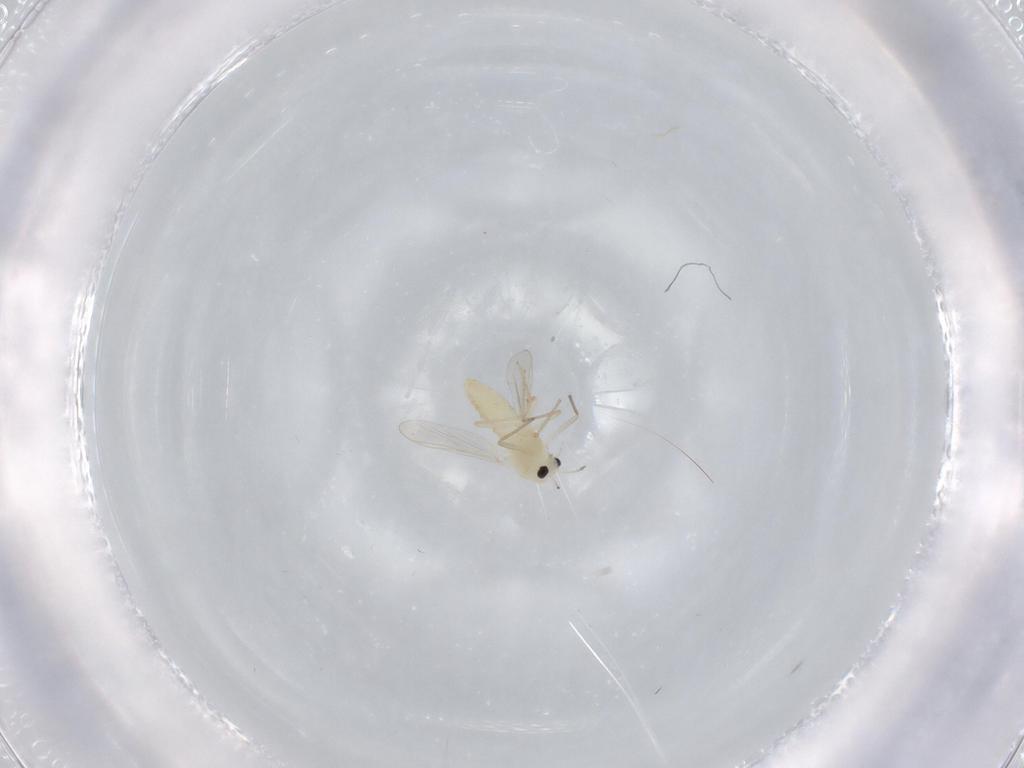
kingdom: Animalia
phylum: Arthropoda
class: Insecta
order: Diptera
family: Chironomidae
